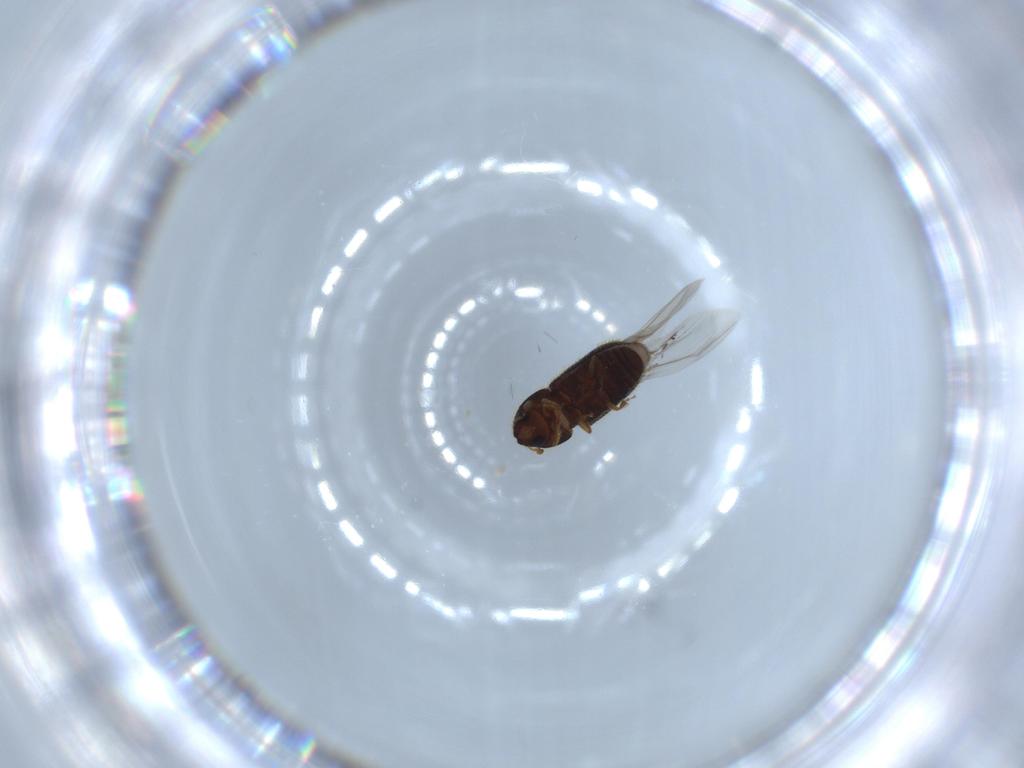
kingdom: Animalia
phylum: Arthropoda
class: Insecta
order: Coleoptera
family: Curculionidae
